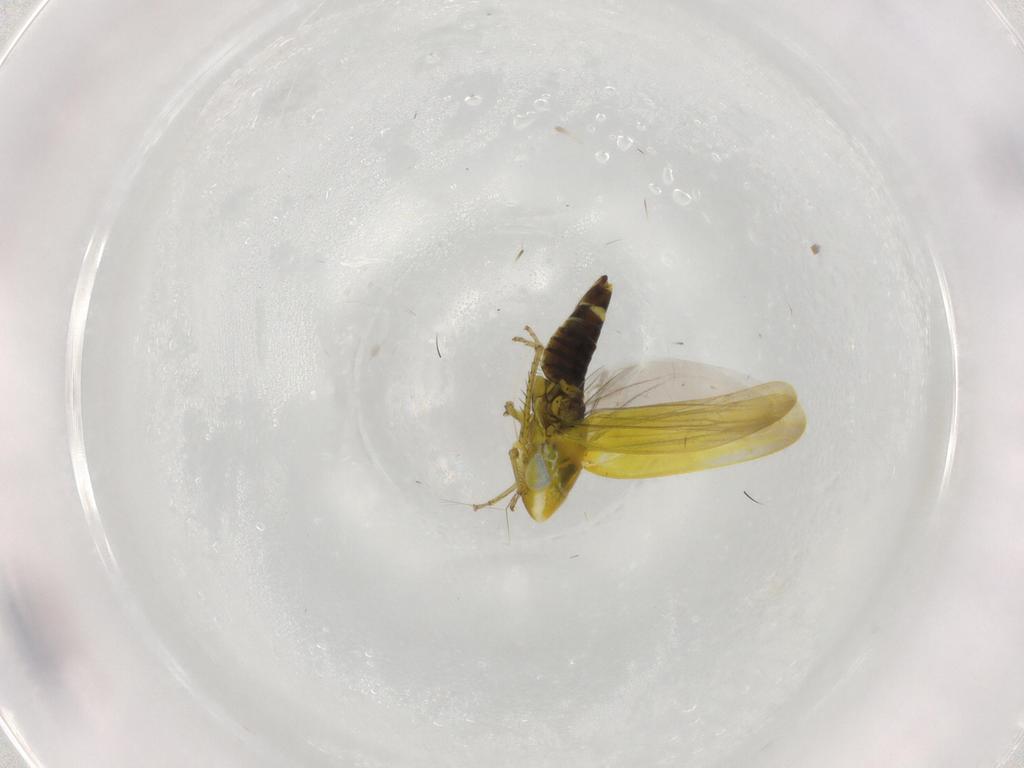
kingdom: Animalia
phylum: Arthropoda
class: Insecta
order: Hemiptera
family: Cicadellidae
